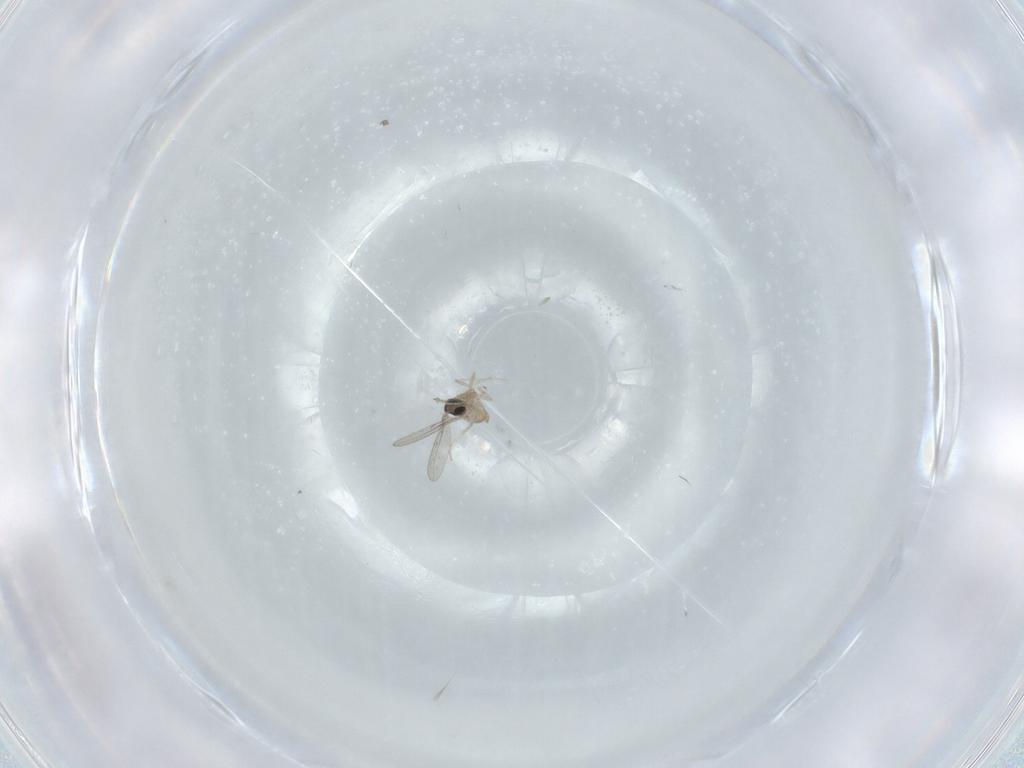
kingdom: Animalia
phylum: Arthropoda
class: Insecta
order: Diptera
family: Cecidomyiidae
